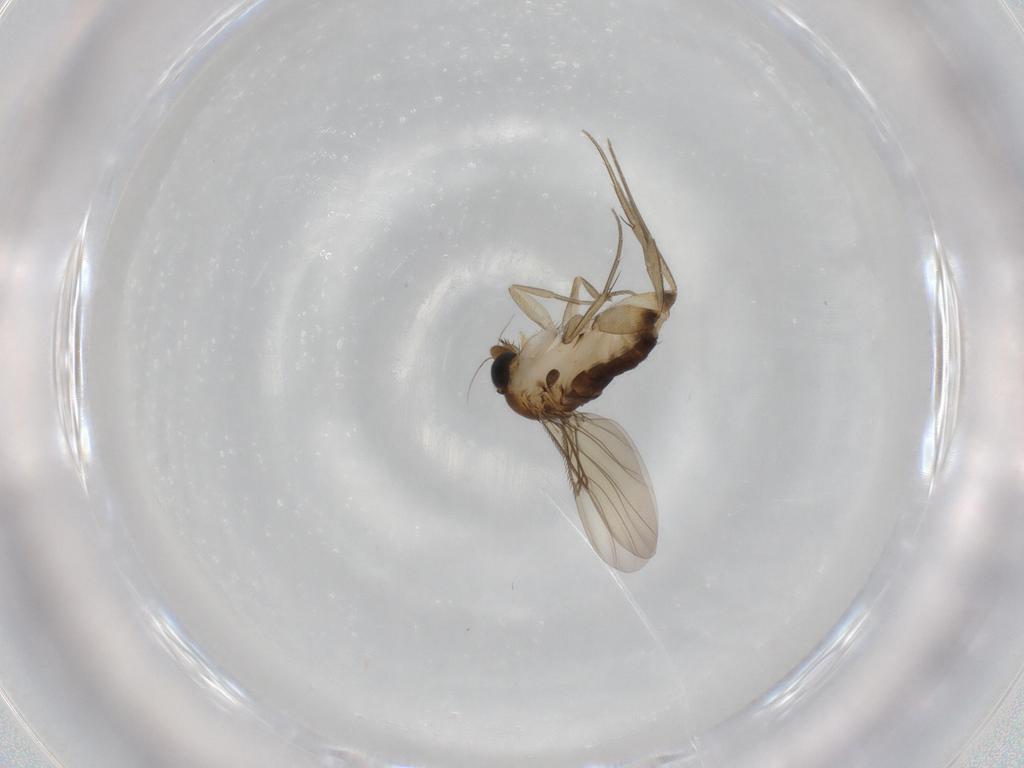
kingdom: Animalia
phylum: Arthropoda
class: Insecta
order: Diptera
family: Phoridae
